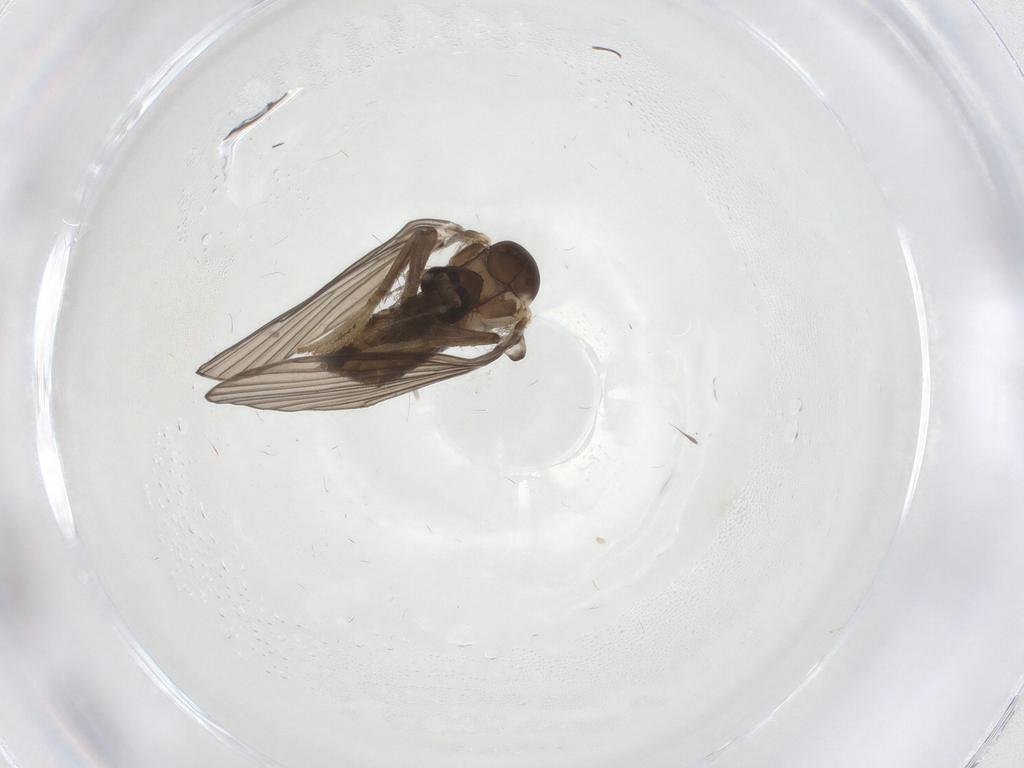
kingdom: Animalia
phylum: Arthropoda
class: Insecta
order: Diptera
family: Psychodidae
